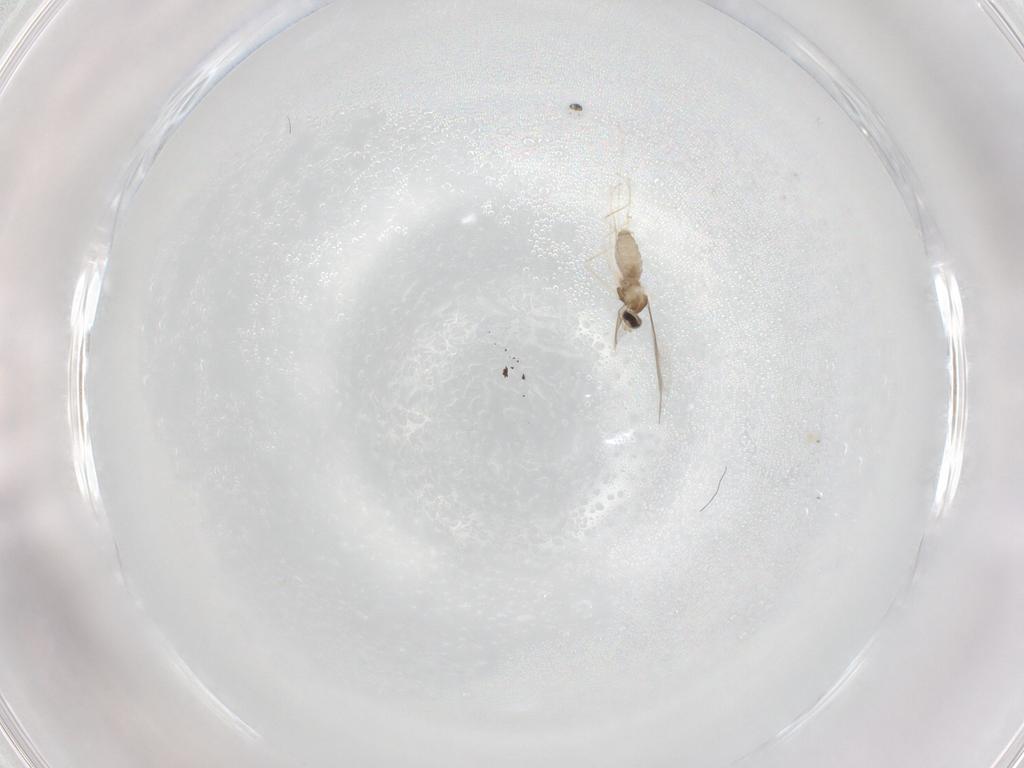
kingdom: Animalia
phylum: Arthropoda
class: Insecta
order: Diptera
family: Cecidomyiidae
